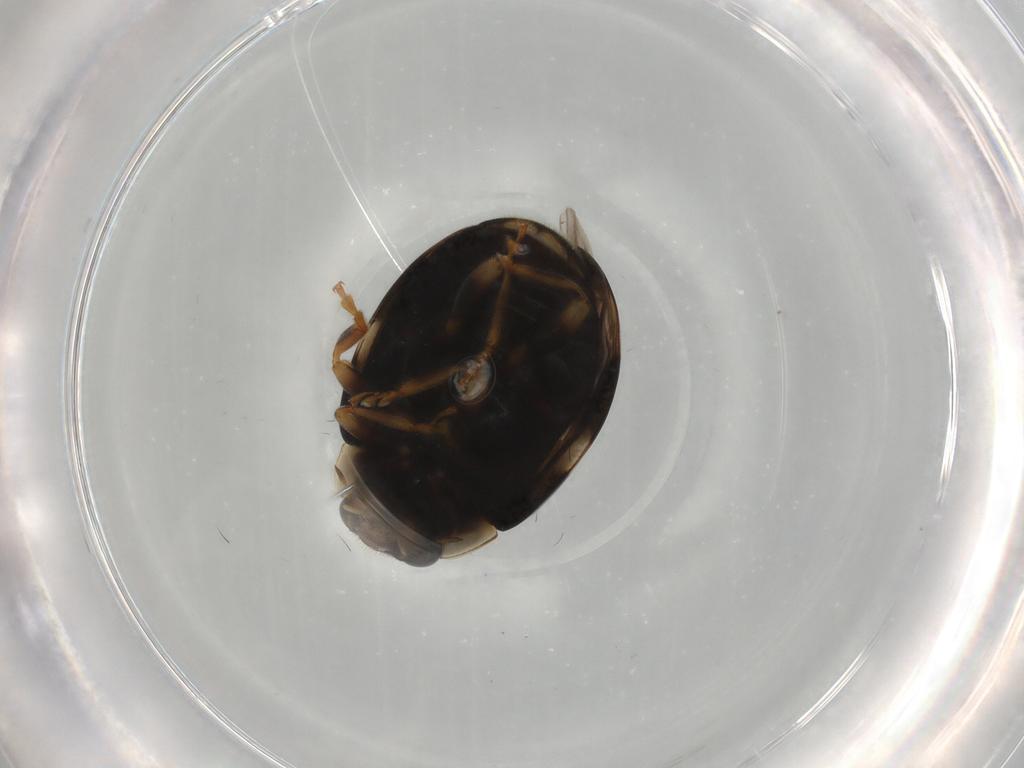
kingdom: Animalia
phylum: Arthropoda
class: Insecta
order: Coleoptera
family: Coccinellidae
